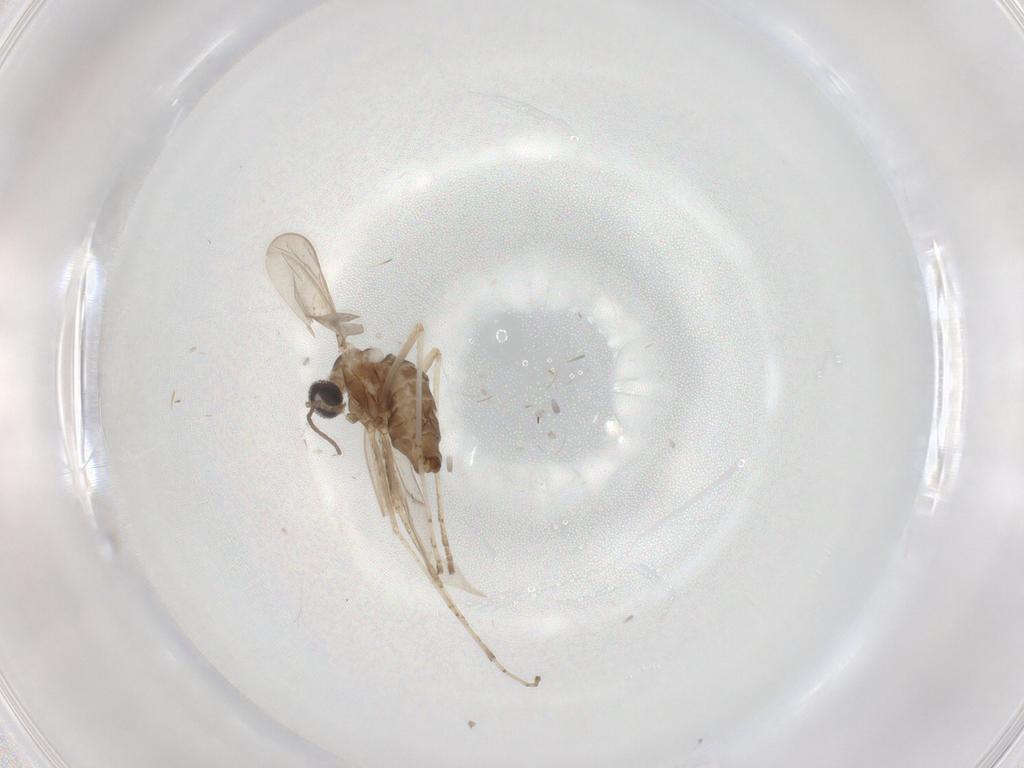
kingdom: Animalia
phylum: Arthropoda
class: Insecta
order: Diptera
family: Cecidomyiidae
